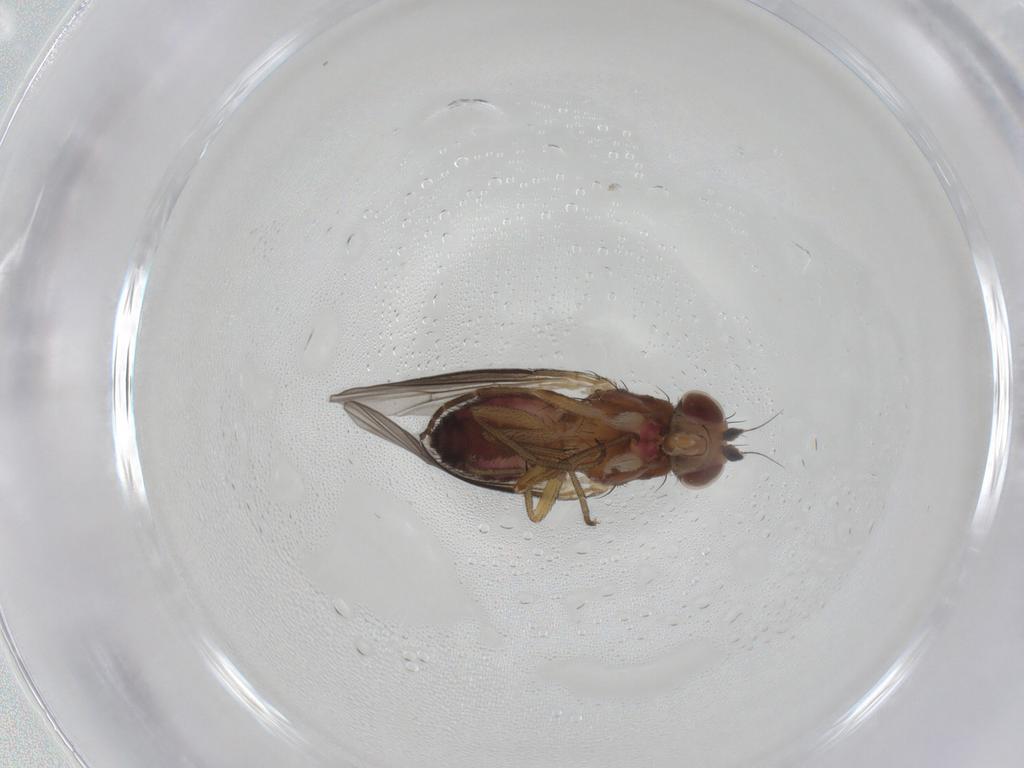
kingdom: Animalia
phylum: Arthropoda
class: Insecta
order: Diptera
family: Heleomyzidae
